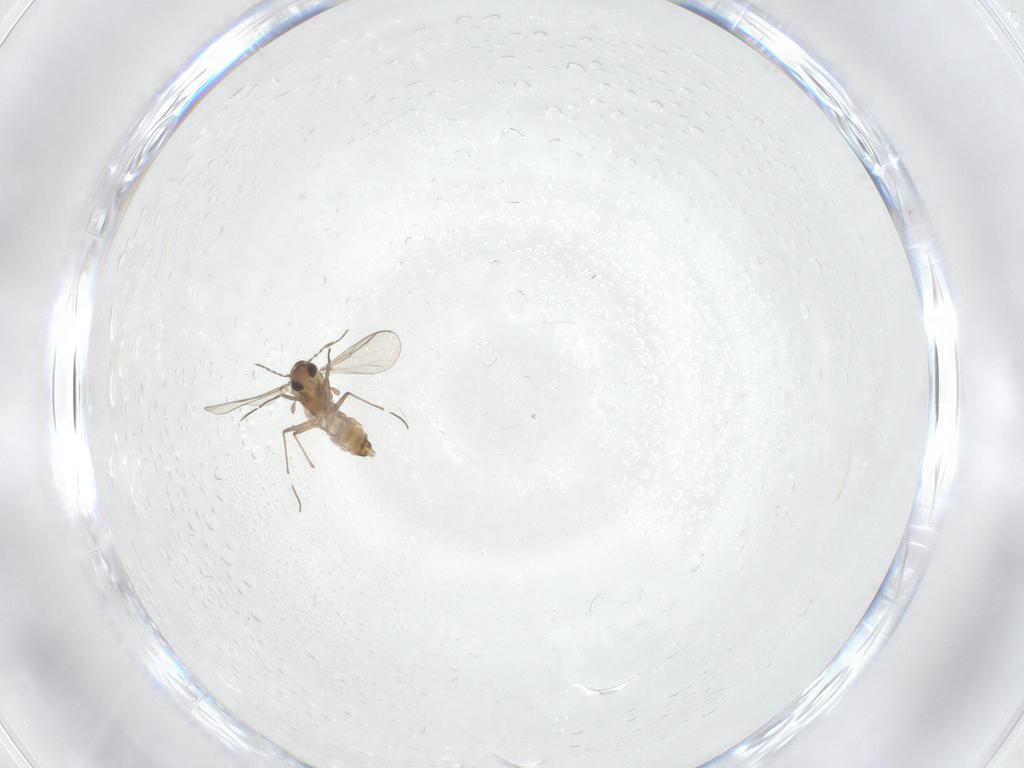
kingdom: Animalia
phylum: Arthropoda
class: Insecta
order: Diptera
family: Chironomidae
